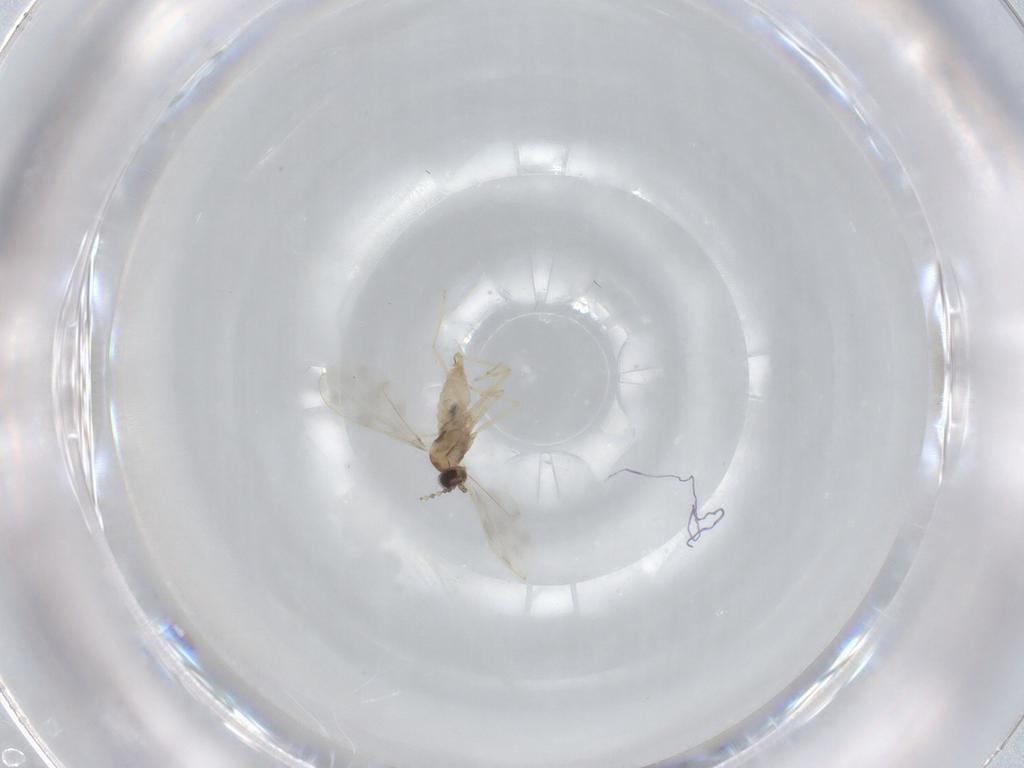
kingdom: Animalia
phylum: Arthropoda
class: Insecta
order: Diptera
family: Cecidomyiidae
